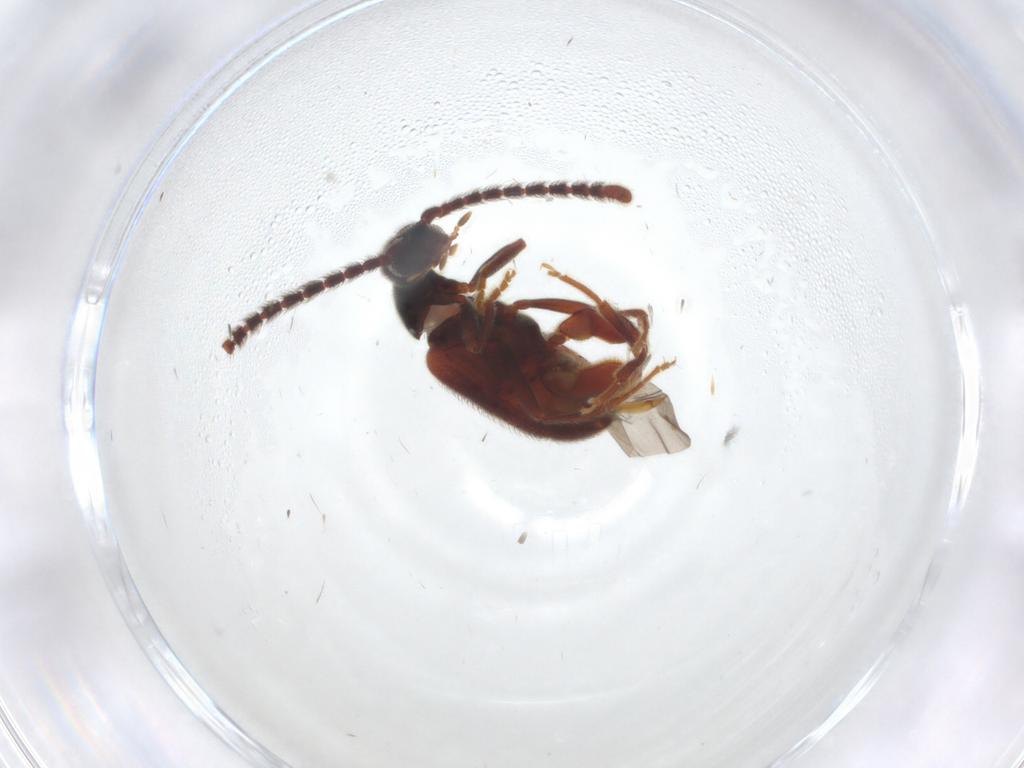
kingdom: Animalia
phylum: Arthropoda
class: Insecta
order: Coleoptera
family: Aderidae
